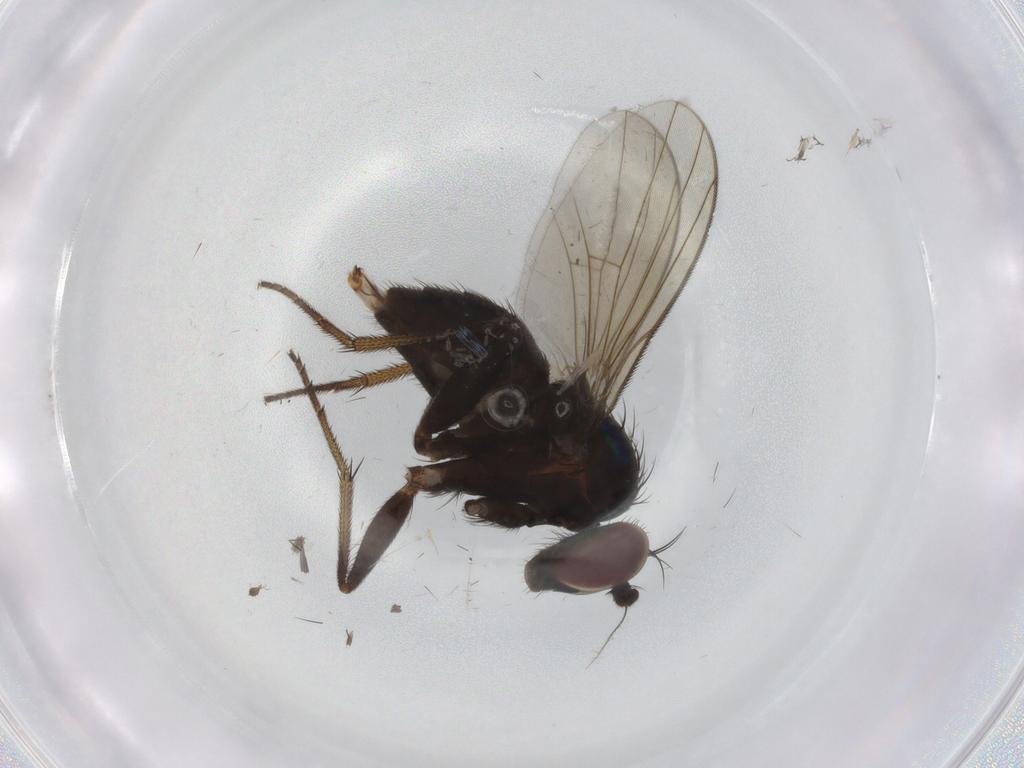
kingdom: Animalia
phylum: Arthropoda
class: Insecta
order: Diptera
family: Dolichopodidae
